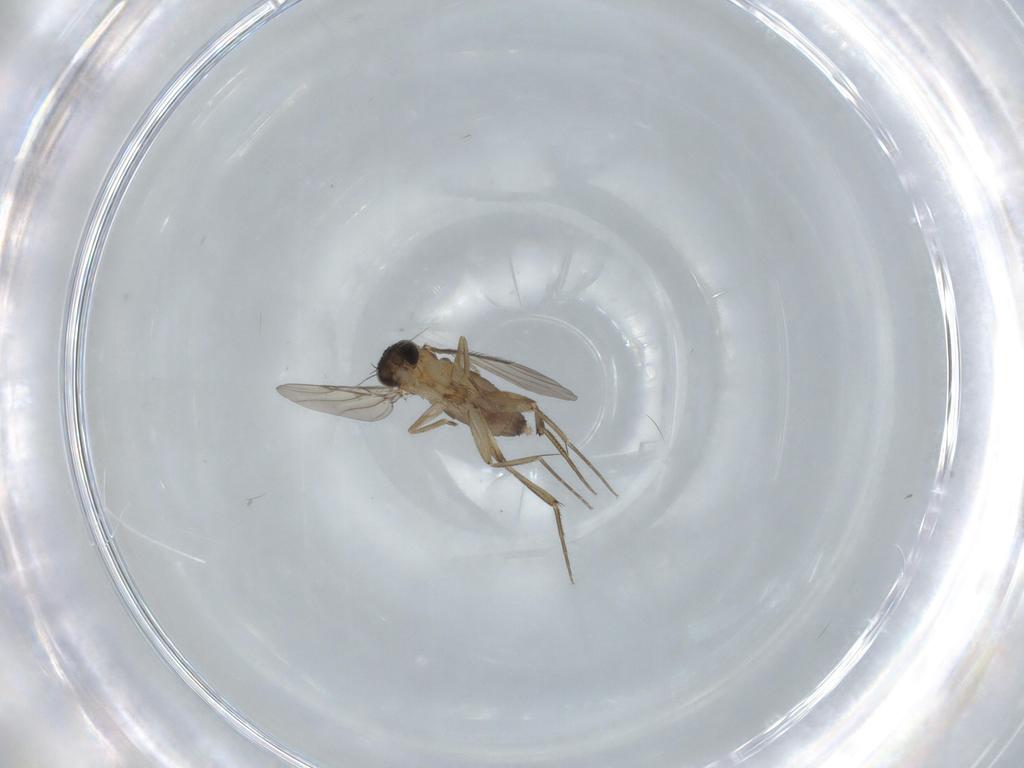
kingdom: Animalia
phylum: Arthropoda
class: Insecta
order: Diptera
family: Phoridae
